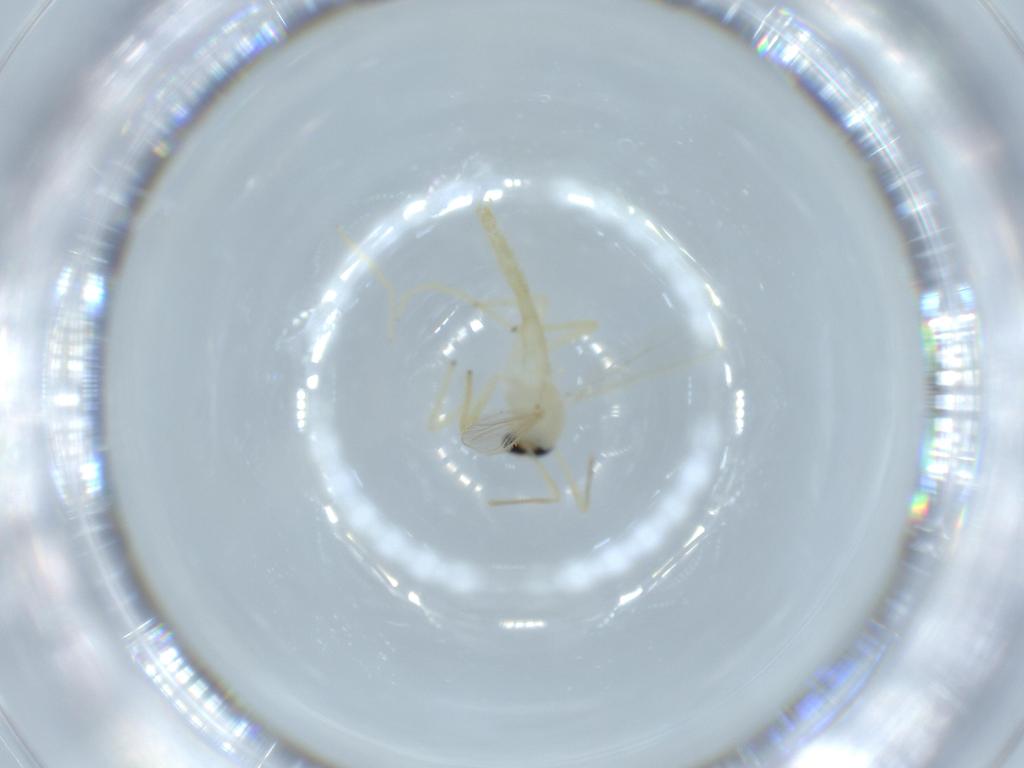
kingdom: Animalia
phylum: Arthropoda
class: Insecta
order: Diptera
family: Chironomidae
